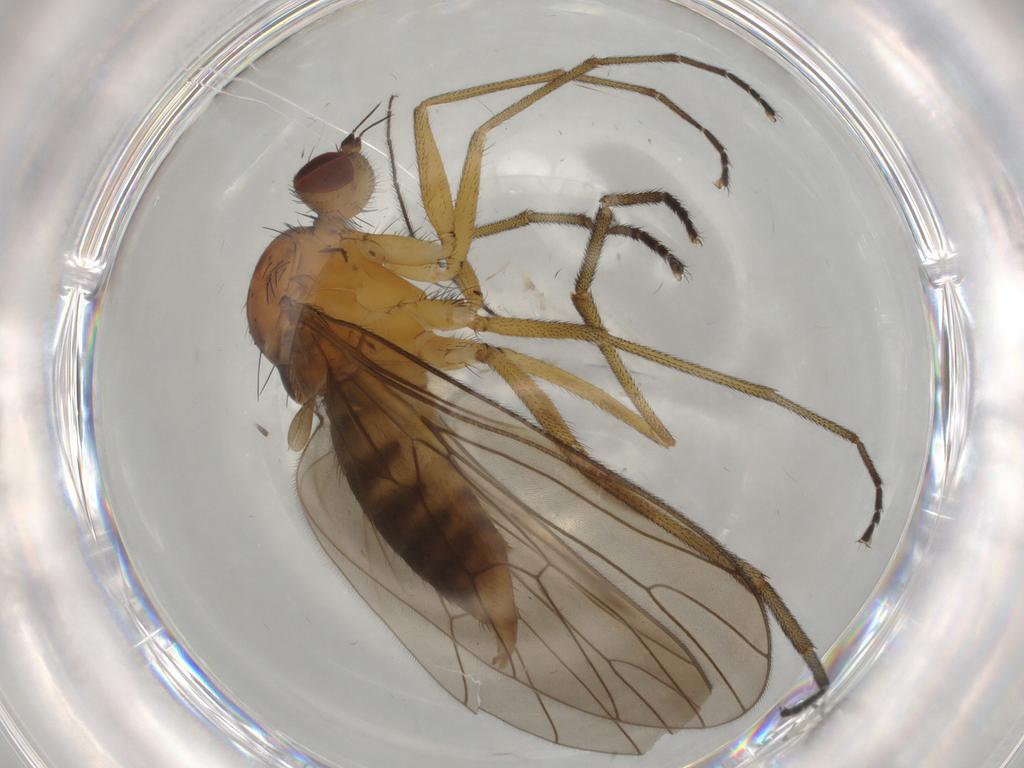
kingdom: Animalia
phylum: Arthropoda
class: Insecta
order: Diptera
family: Brachystomatidae
